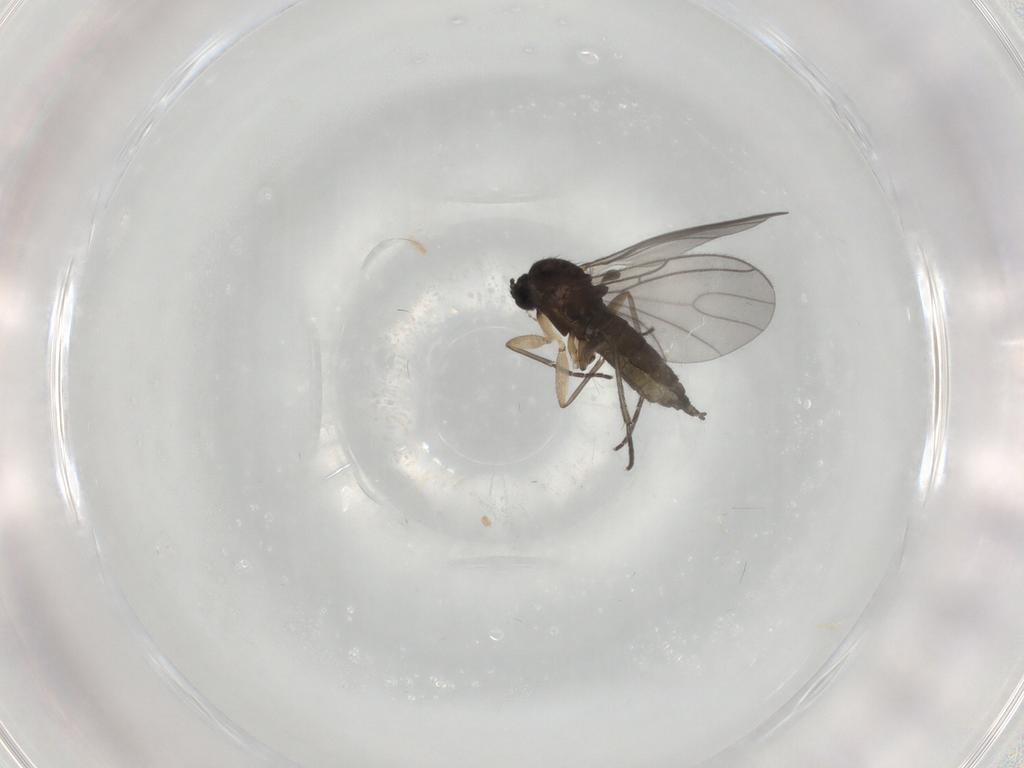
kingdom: Animalia
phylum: Arthropoda
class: Insecta
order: Diptera
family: Sciaridae
